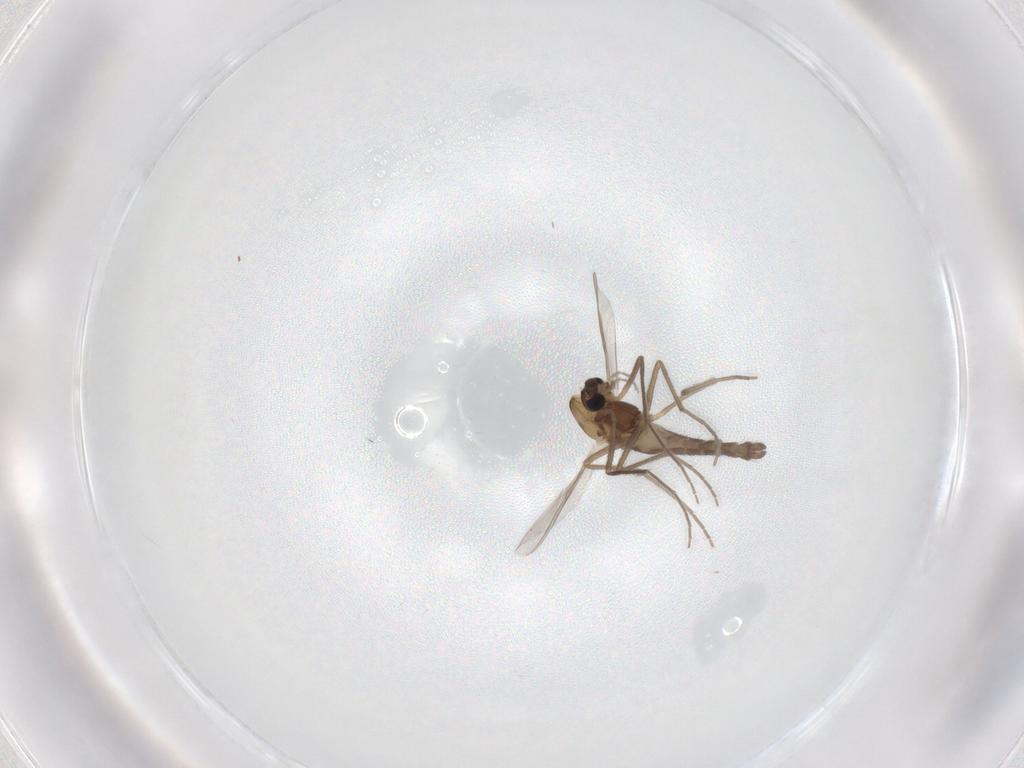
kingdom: Animalia
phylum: Arthropoda
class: Insecta
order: Diptera
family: Chironomidae
